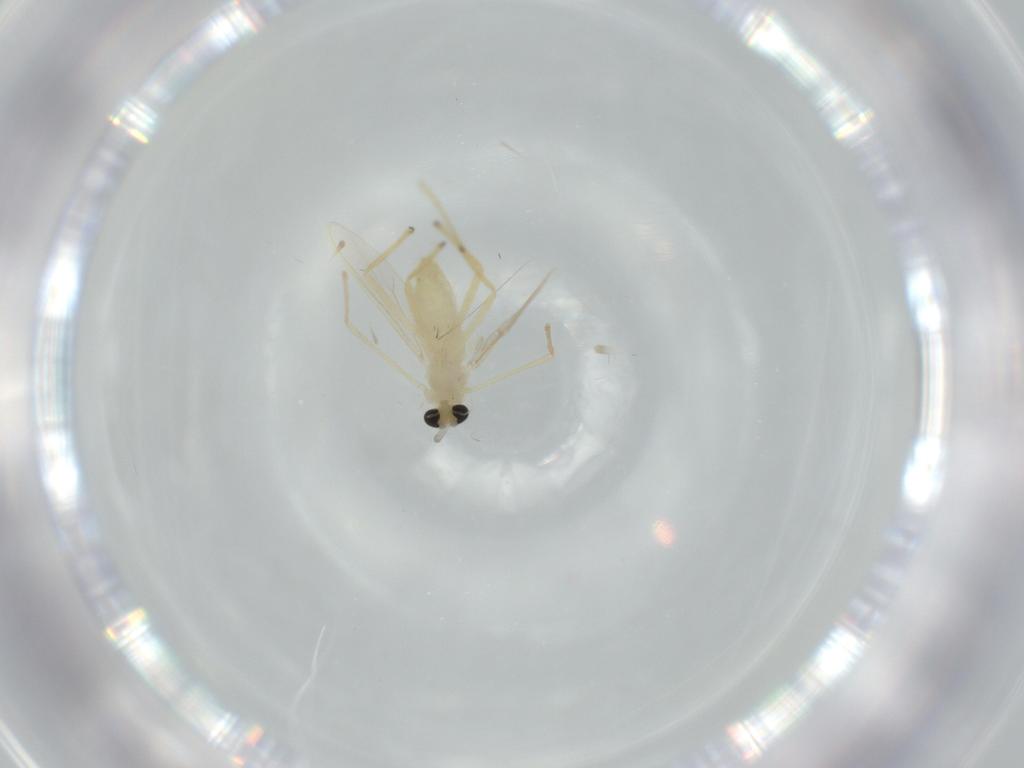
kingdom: Animalia
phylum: Arthropoda
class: Insecta
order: Diptera
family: Chironomidae
